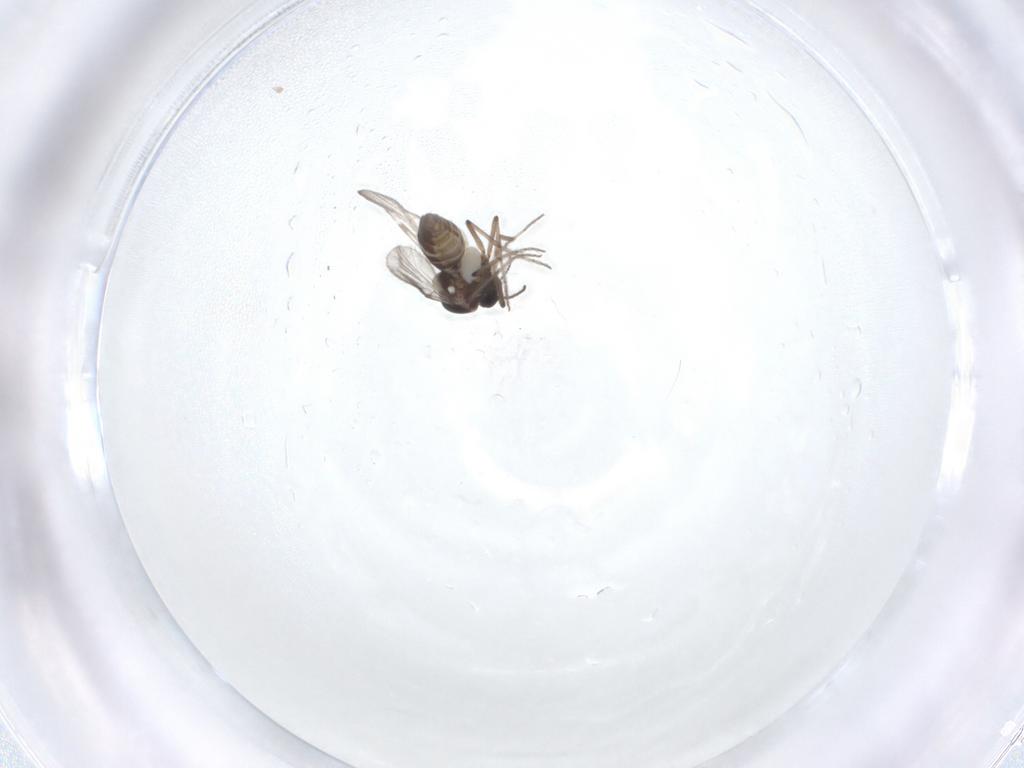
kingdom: Animalia
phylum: Arthropoda
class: Insecta
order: Diptera
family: Ceratopogonidae
